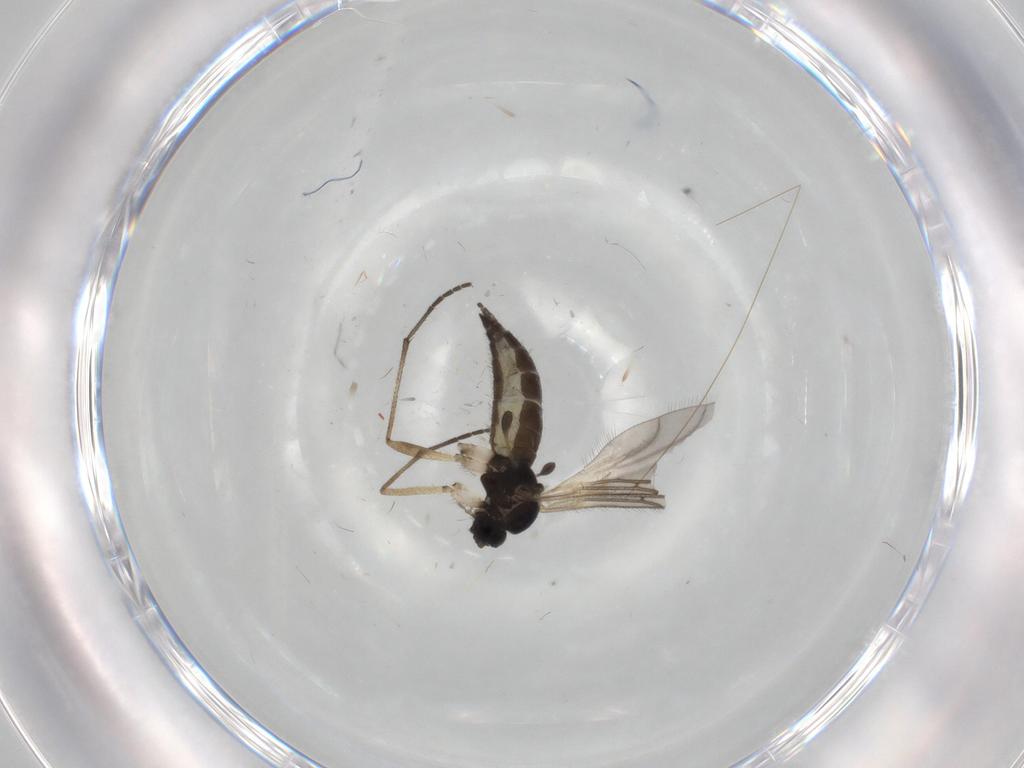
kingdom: Animalia
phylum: Arthropoda
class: Insecta
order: Diptera
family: Sciaridae
